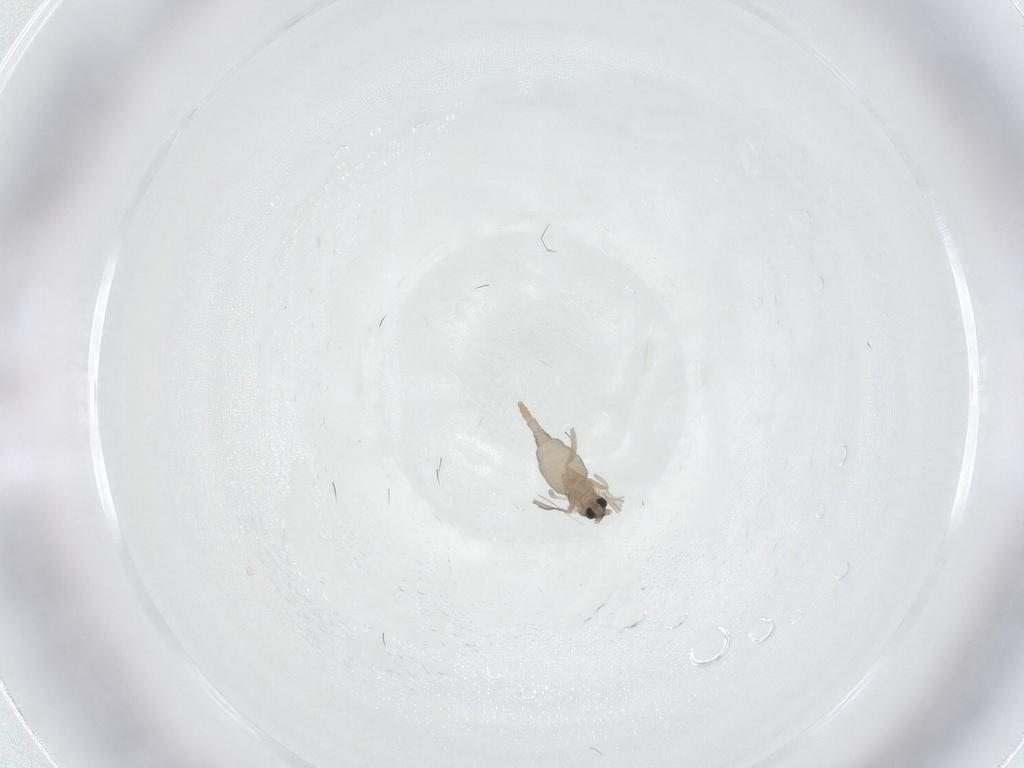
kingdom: Animalia
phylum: Arthropoda
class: Insecta
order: Diptera
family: Cecidomyiidae
